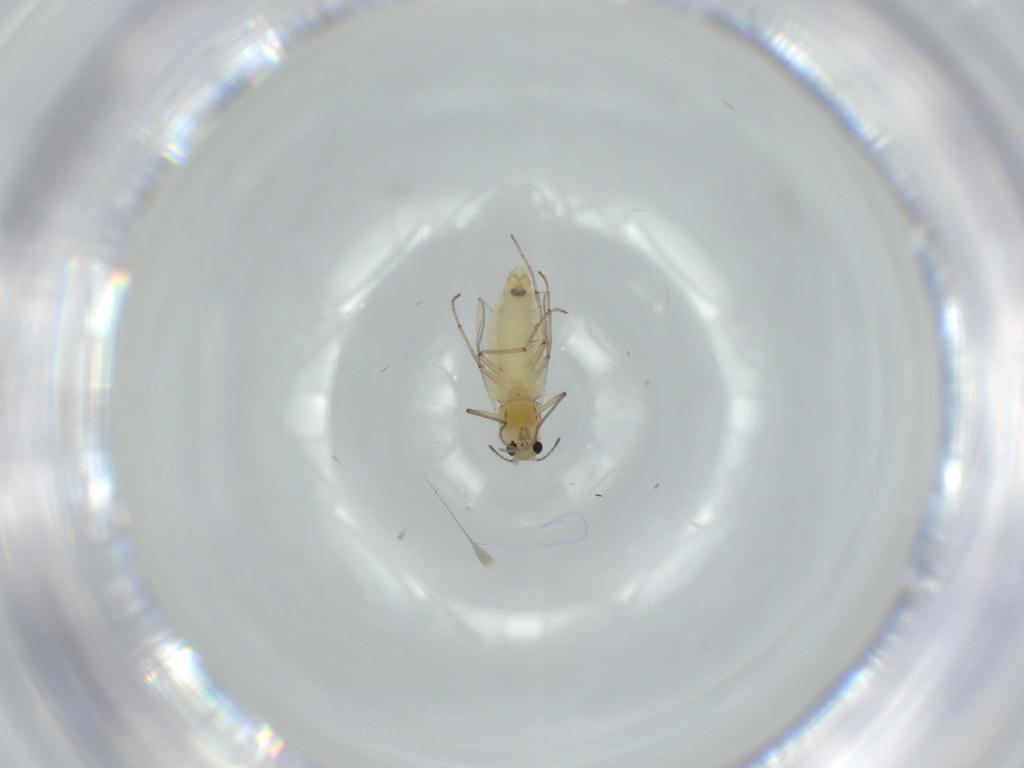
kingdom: Animalia
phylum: Arthropoda
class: Insecta
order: Diptera
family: Chironomidae
